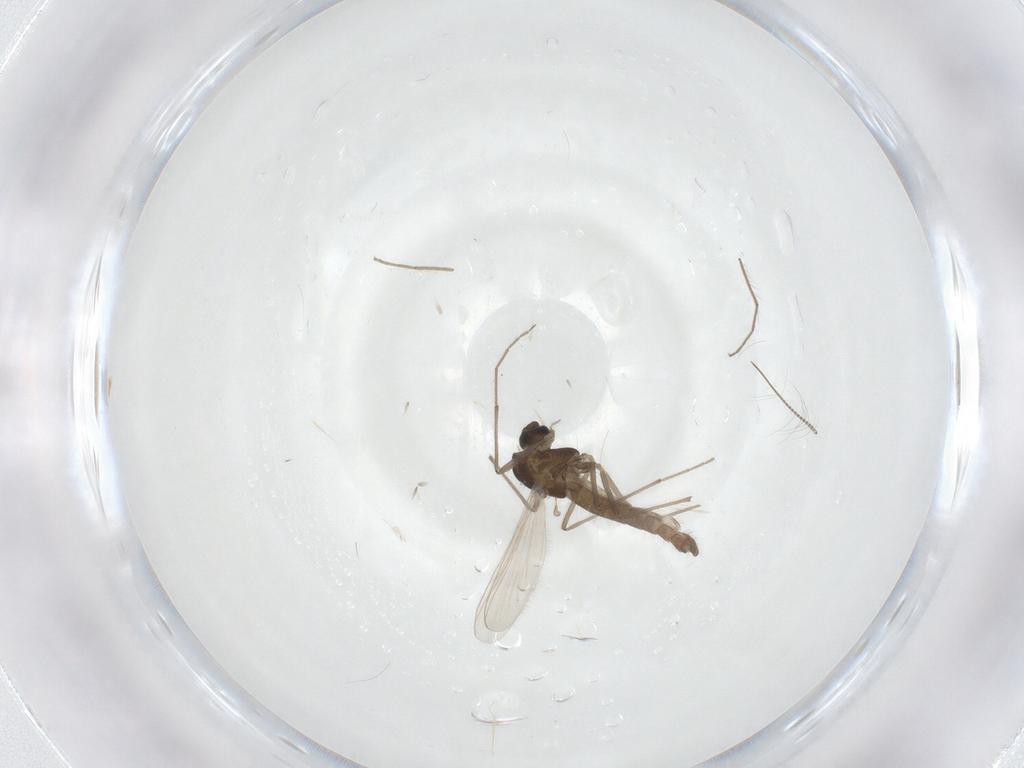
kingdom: Animalia
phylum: Arthropoda
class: Insecta
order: Diptera
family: Chironomidae
